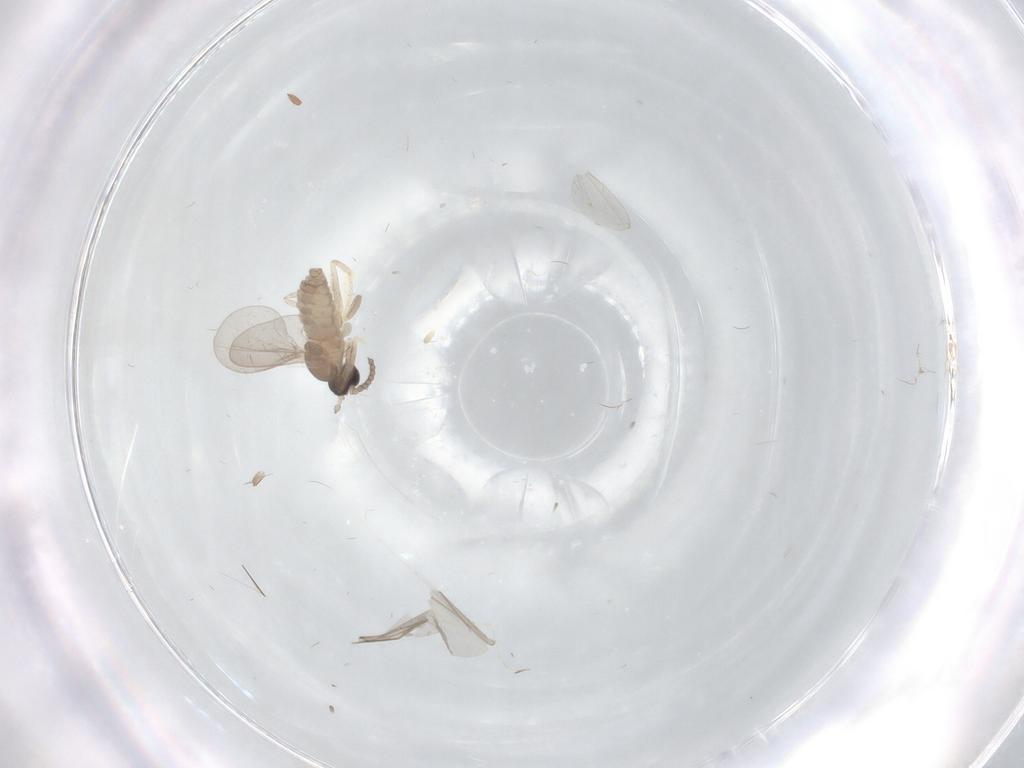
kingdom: Animalia
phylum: Arthropoda
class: Insecta
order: Diptera
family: Cecidomyiidae
